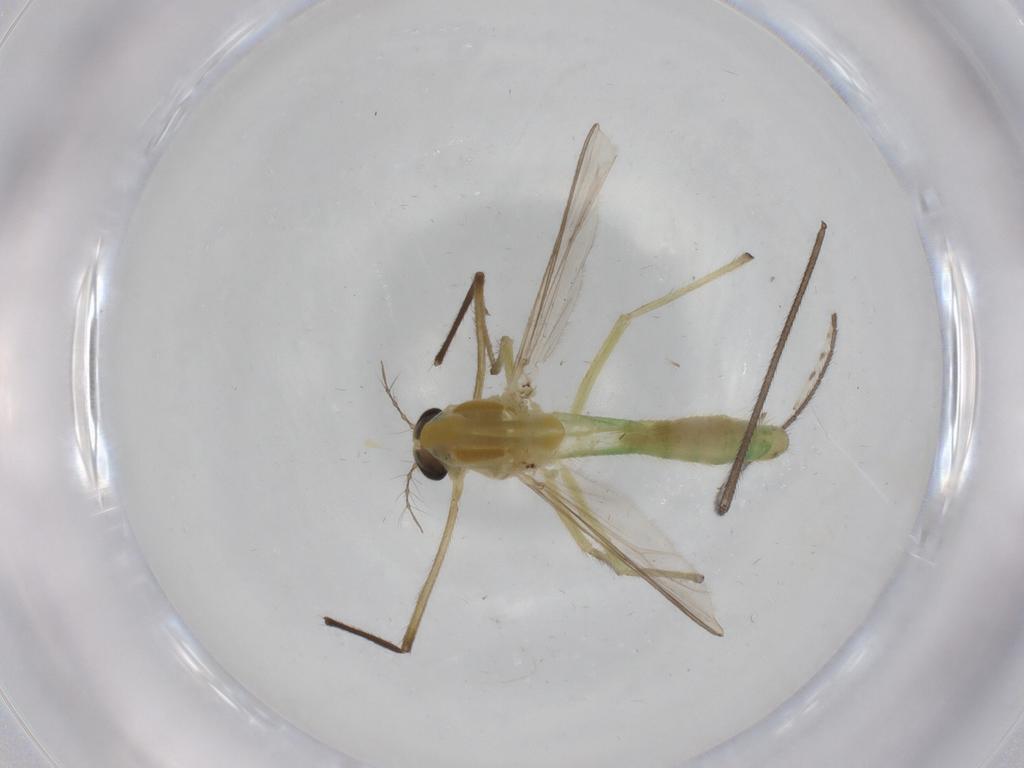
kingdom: Animalia
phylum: Arthropoda
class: Insecta
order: Diptera
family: Chironomidae
